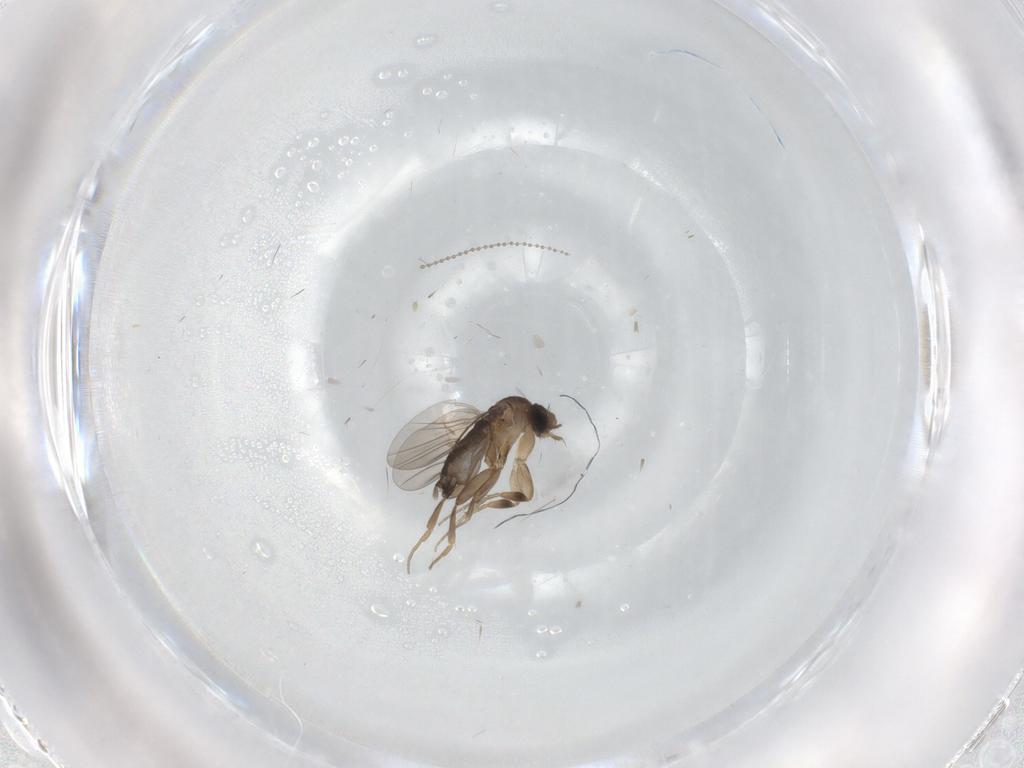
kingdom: Animalia
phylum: Arthropoda
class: Insecta
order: Diptera
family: Phoridae
